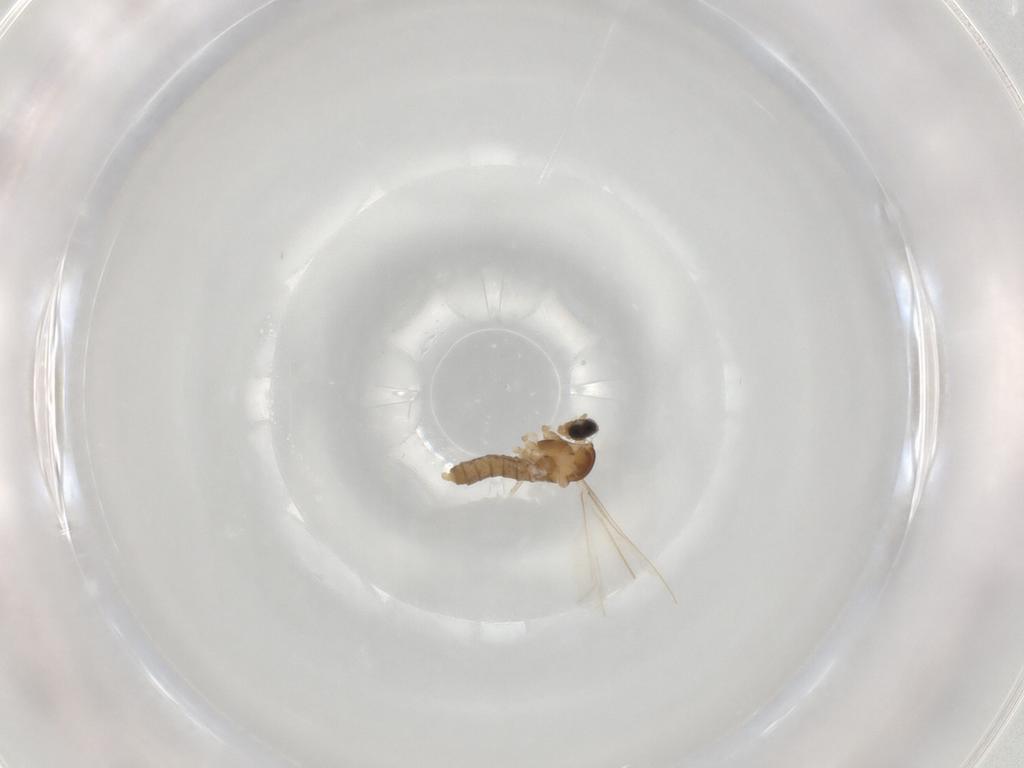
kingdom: Animalia
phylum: Arthropoda
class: Insecta
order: Diptera
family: Cecidomyiidae
